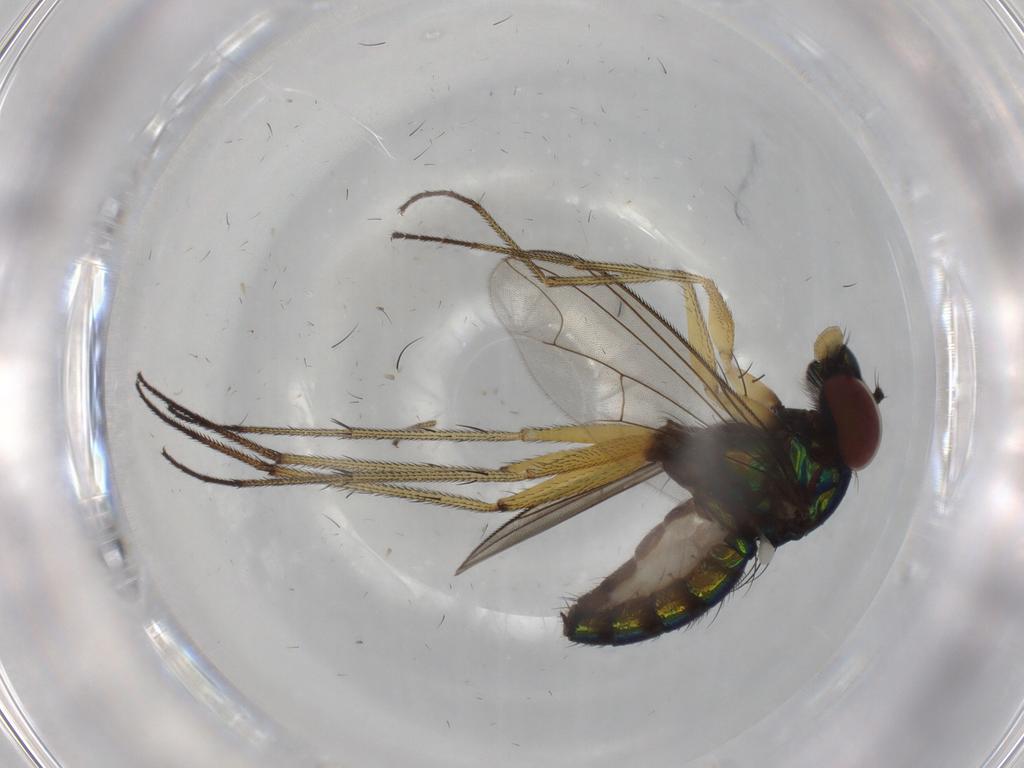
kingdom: Animalia
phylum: Arthropoda
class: Insecta
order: Diptera
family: Dolichopodidae
